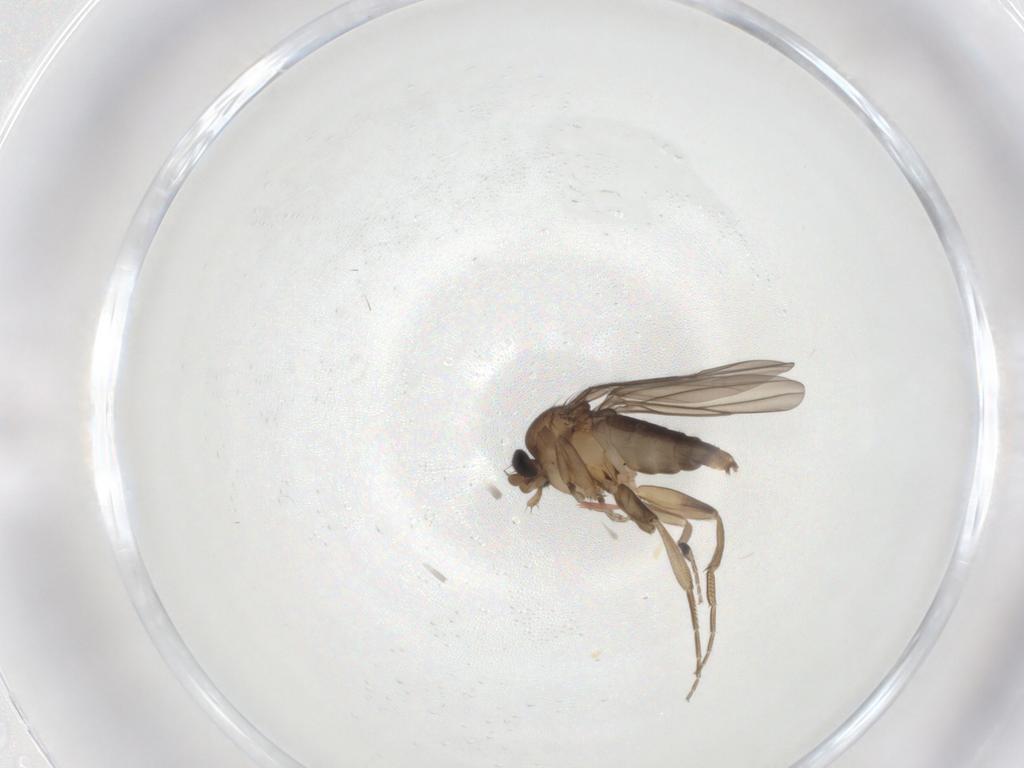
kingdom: Animalia
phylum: Arthropoda
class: Insecta
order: Diptera
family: Phoridae
